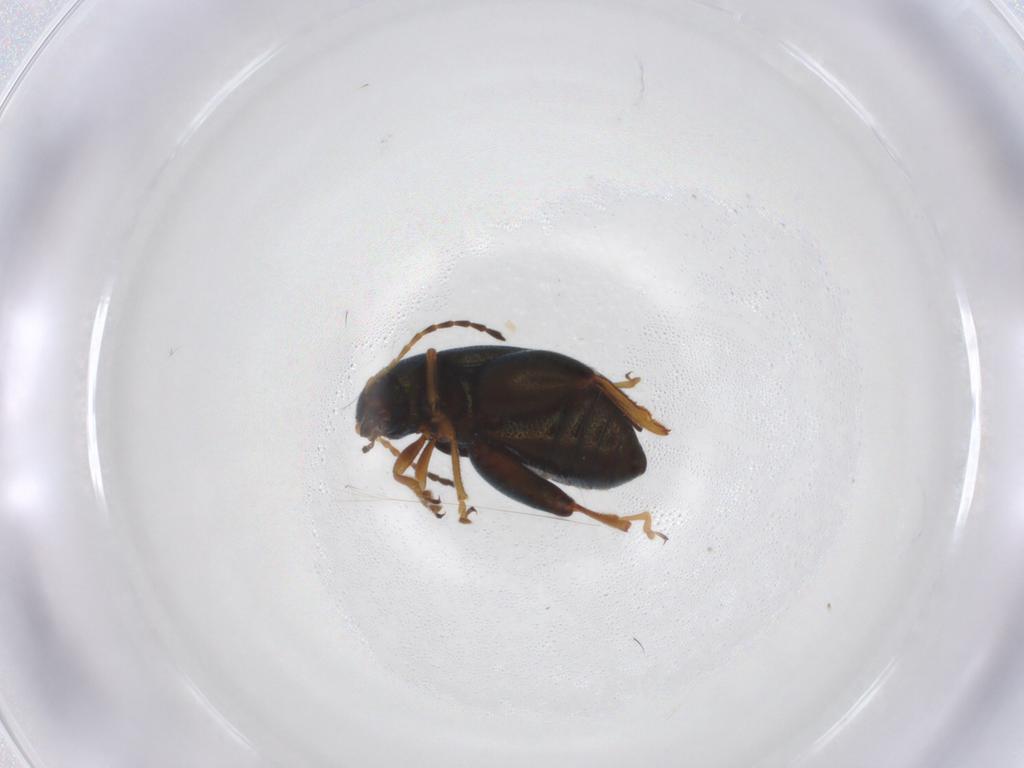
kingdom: Animalia
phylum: Arthropoda
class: Insecta
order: Coleoptera
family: Chrysomelidae
